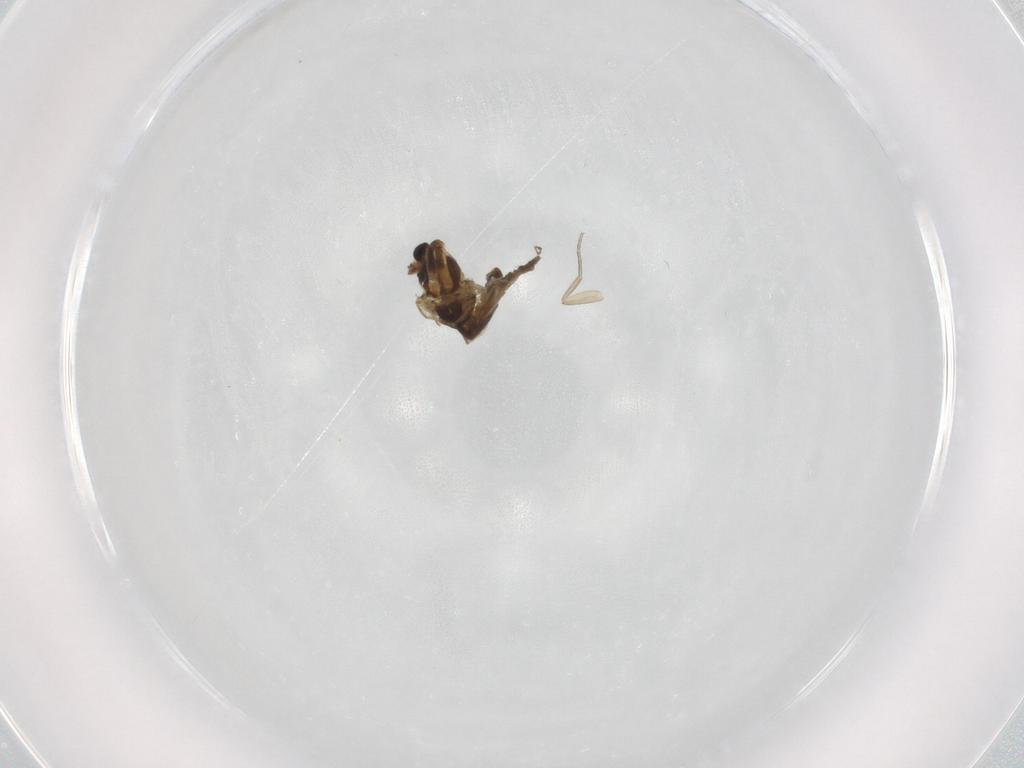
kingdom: Animalia
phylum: Arthropoda
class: Insecta
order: Diptera
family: Chironomidae
